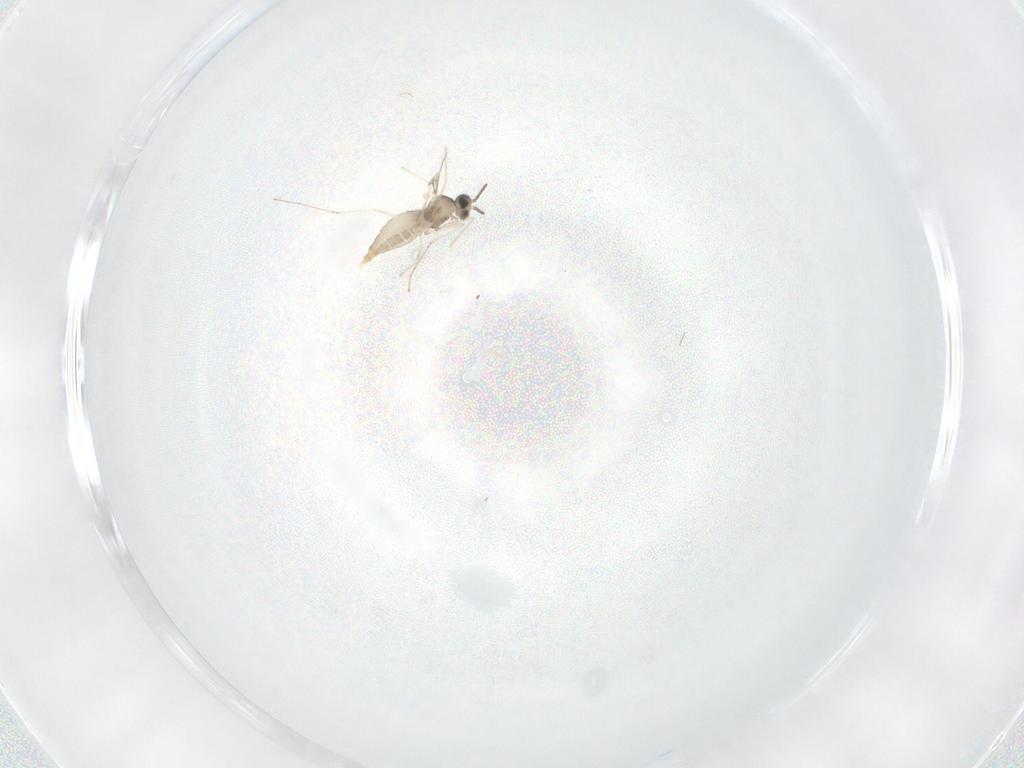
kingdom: Animalia
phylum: Arthropoda
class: Insecta
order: Diptera
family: Cecidomyiidae
